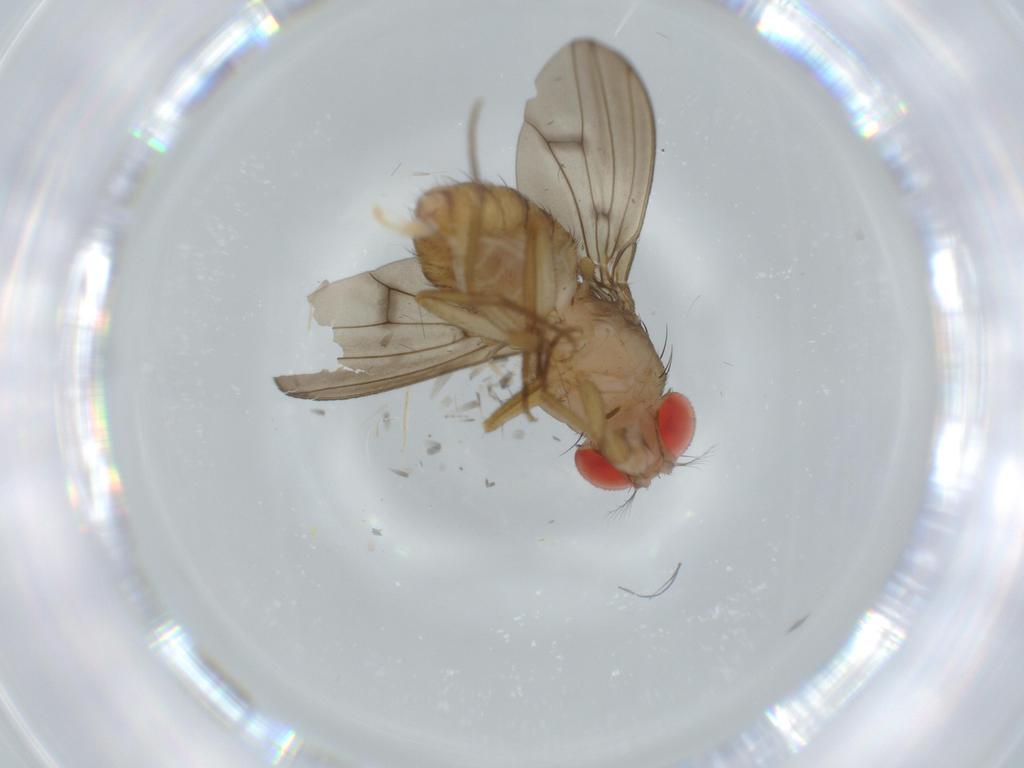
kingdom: Animalia
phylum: Arthropoda
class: Insecta
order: Diptera
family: Drosophilidae
